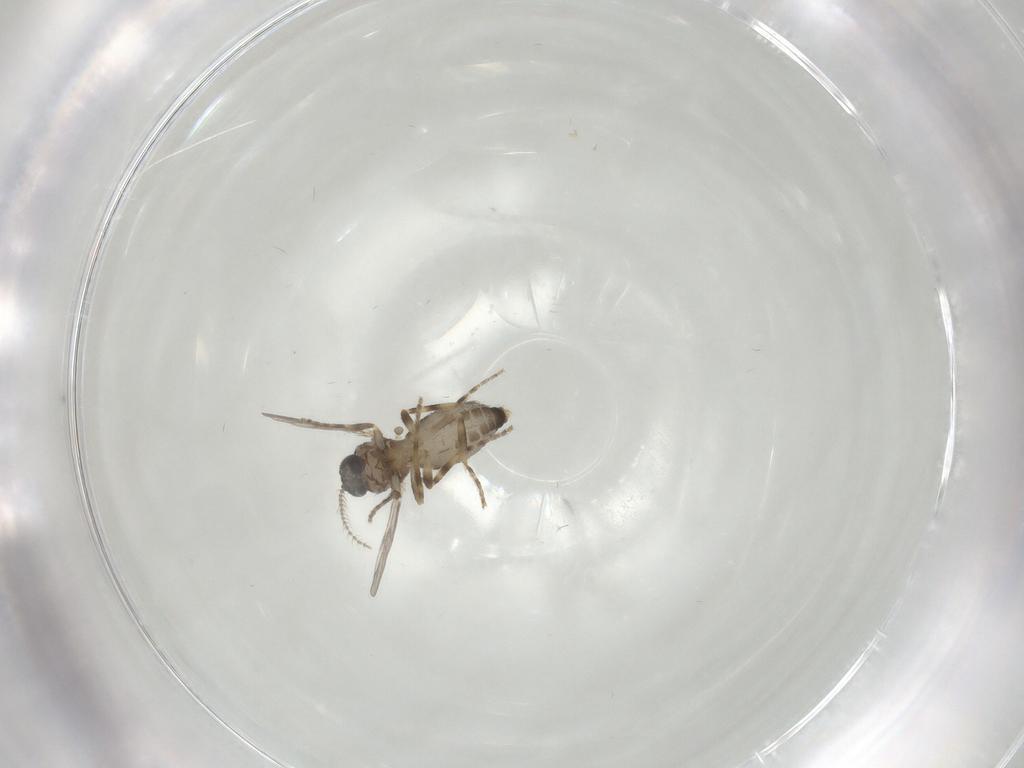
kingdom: Animalia
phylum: Arthropoda
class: Insecta
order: Diptera
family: Ceratopogonidae
